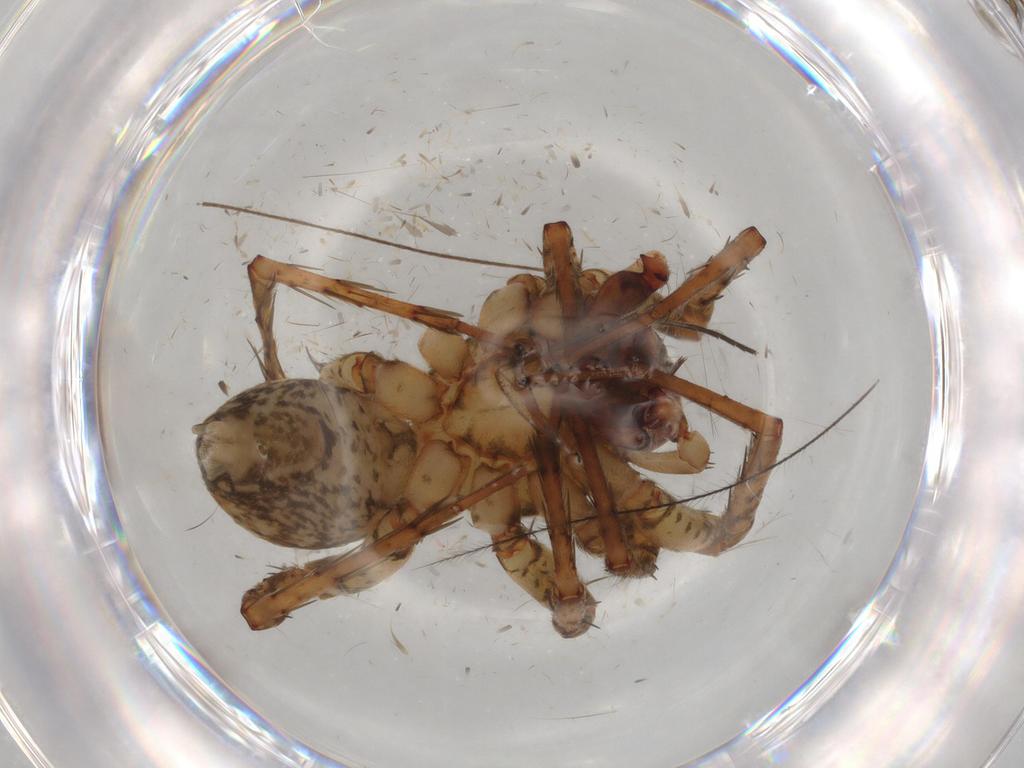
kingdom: Animalia
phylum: Arthropoda
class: Arachnida
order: Araneae
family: Anyphaenidae
